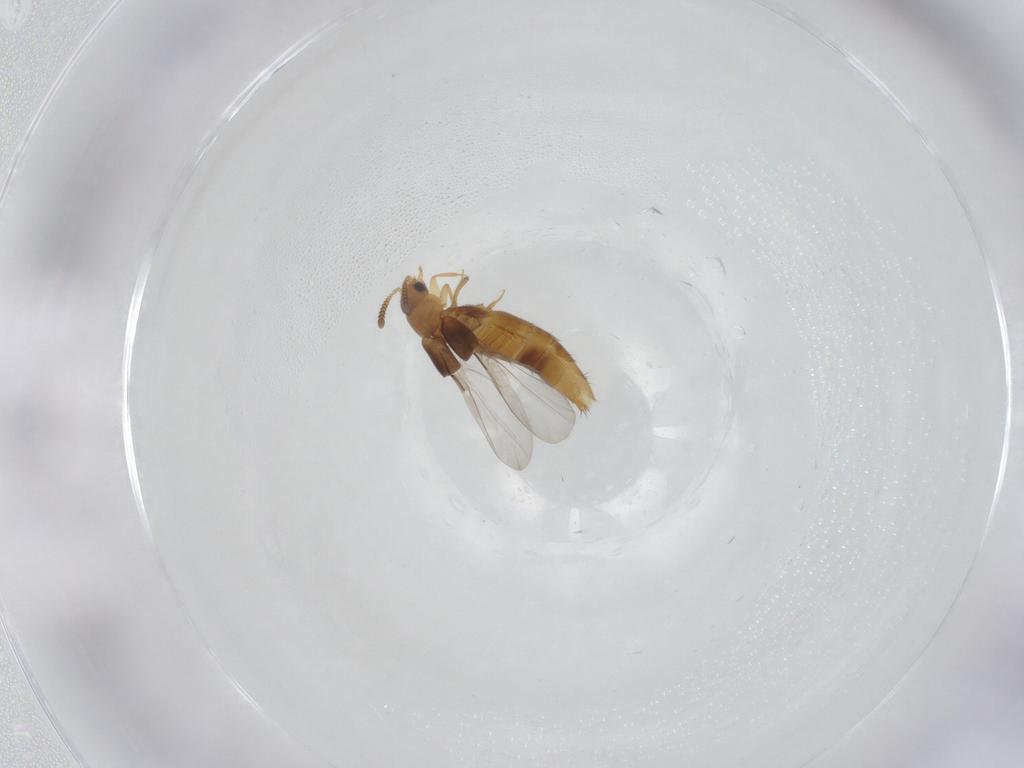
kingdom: Animalia
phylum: Arthropoda
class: Insecta
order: Coleoptera
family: Staphylinidae
